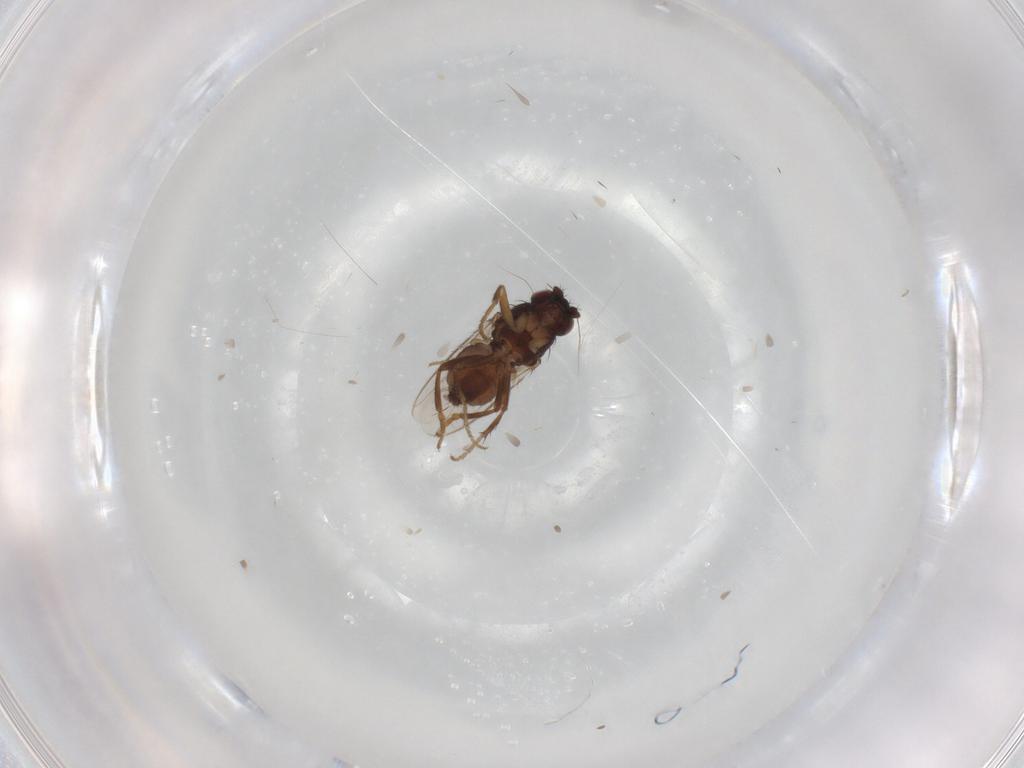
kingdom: Animalia
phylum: Arthropoda
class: Insecta
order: Diptera
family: Sphaeroceridae
